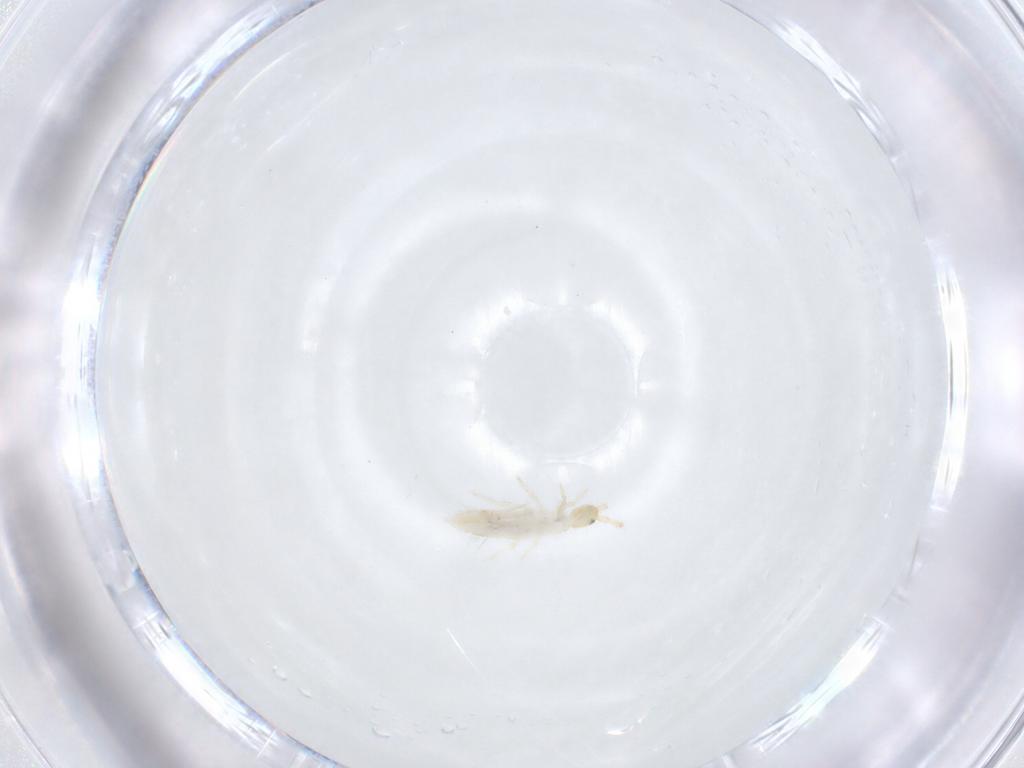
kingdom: Animalia
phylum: Arthropoda
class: Collembola
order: Entomobryomorpha
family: Entomobryidae
